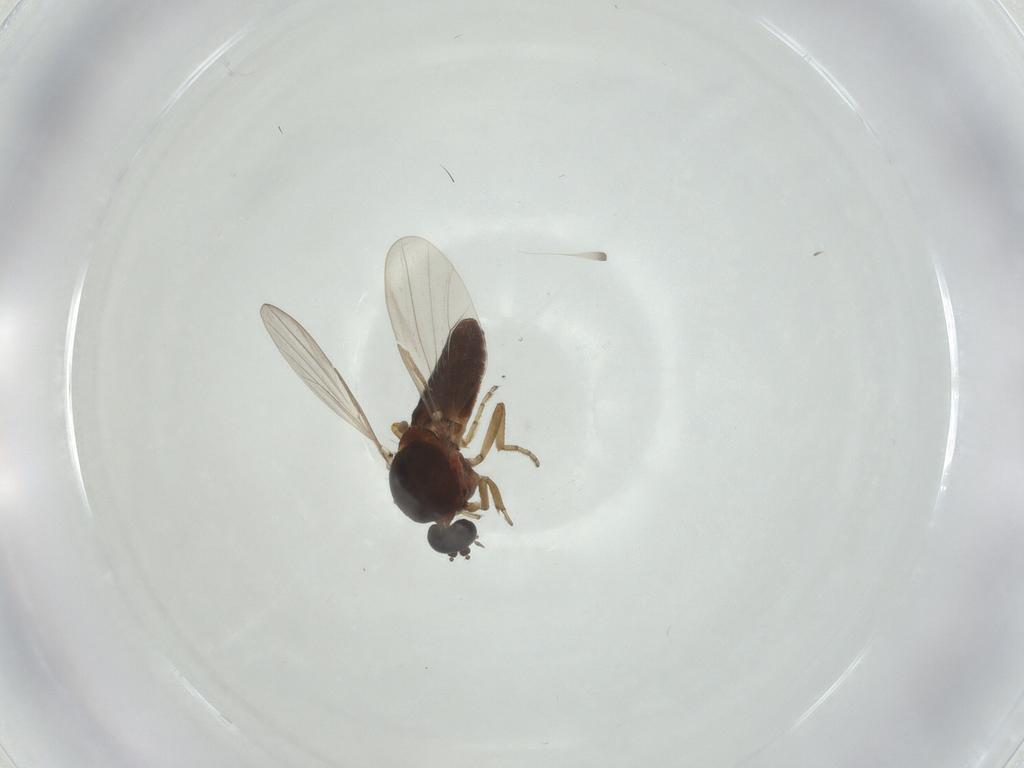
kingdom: Animalia
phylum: Arthropoda
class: Insecta
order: Diptera
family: Ceratopogonidae
